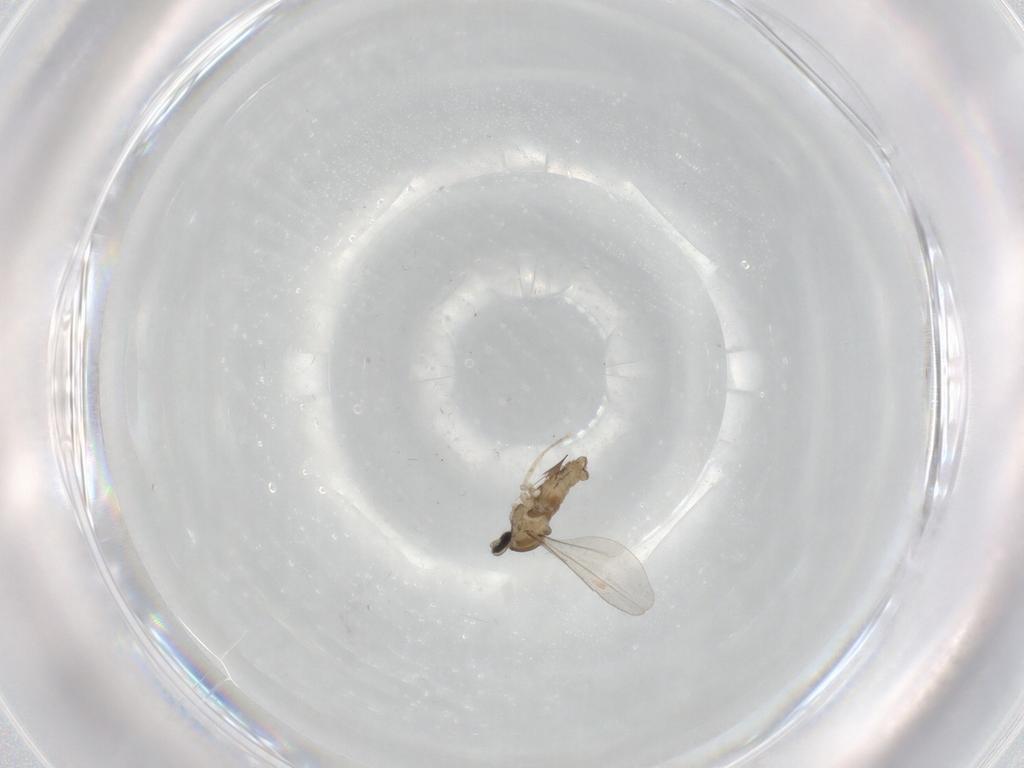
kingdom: Animalia
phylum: Arthropoda
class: Insecta
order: Diptera
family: Cecidomyiidae
